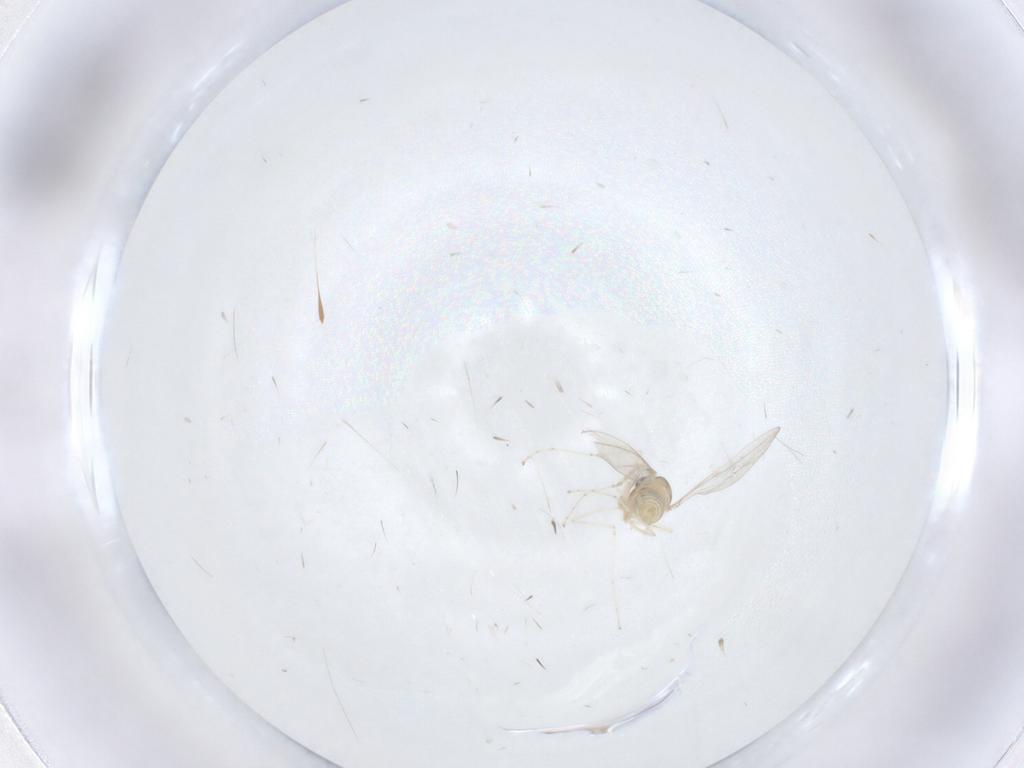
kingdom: Animalia
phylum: Arthropoda
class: Insecta
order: Diptera
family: Cecidomyiidae
